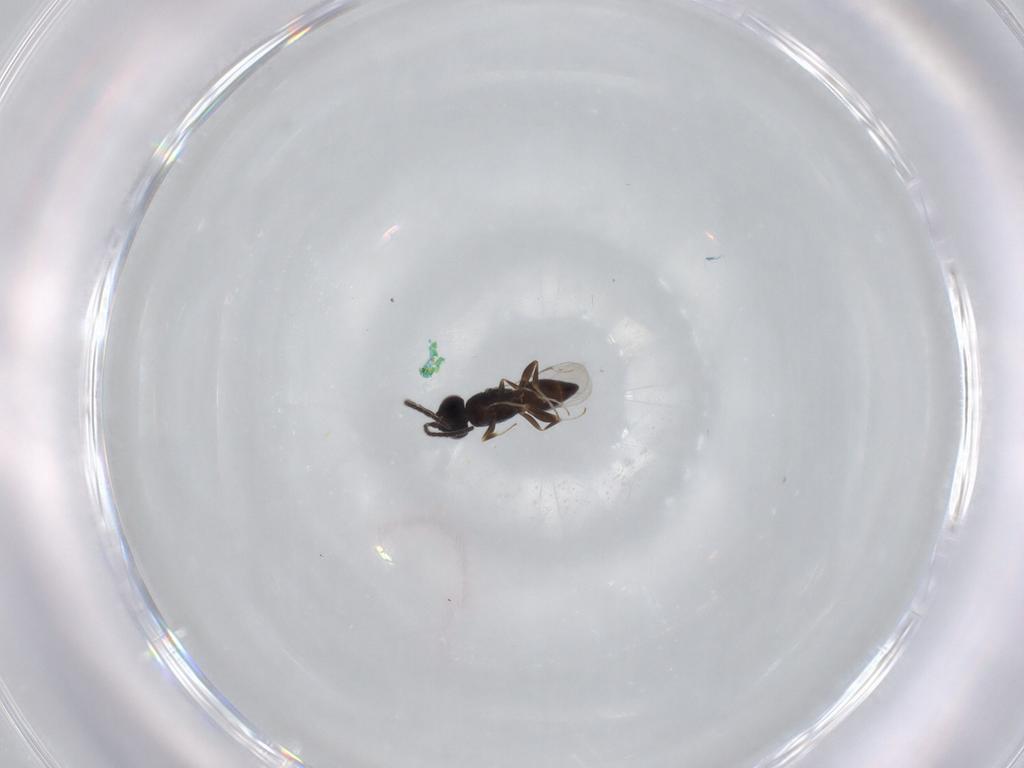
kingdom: Animalia
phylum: Arthropoda
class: Insecta
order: Hymenoptera
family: Ceraphronidae
